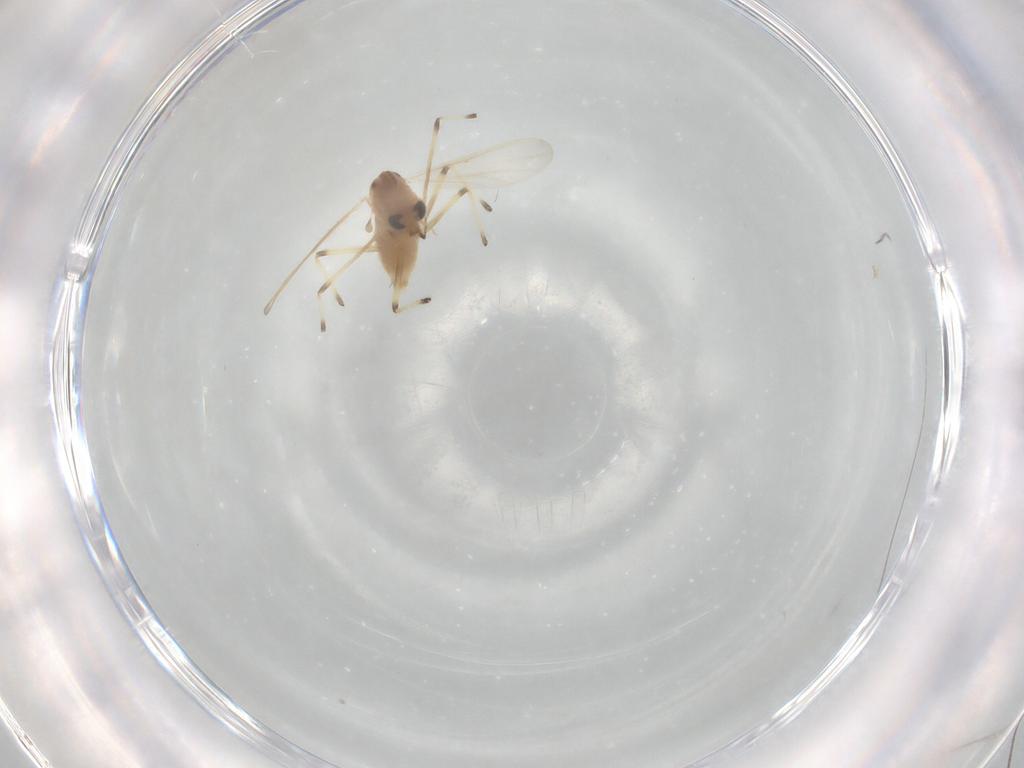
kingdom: Animalia
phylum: Arthropoda
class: Insecta
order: Diptera
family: Chironomidae
